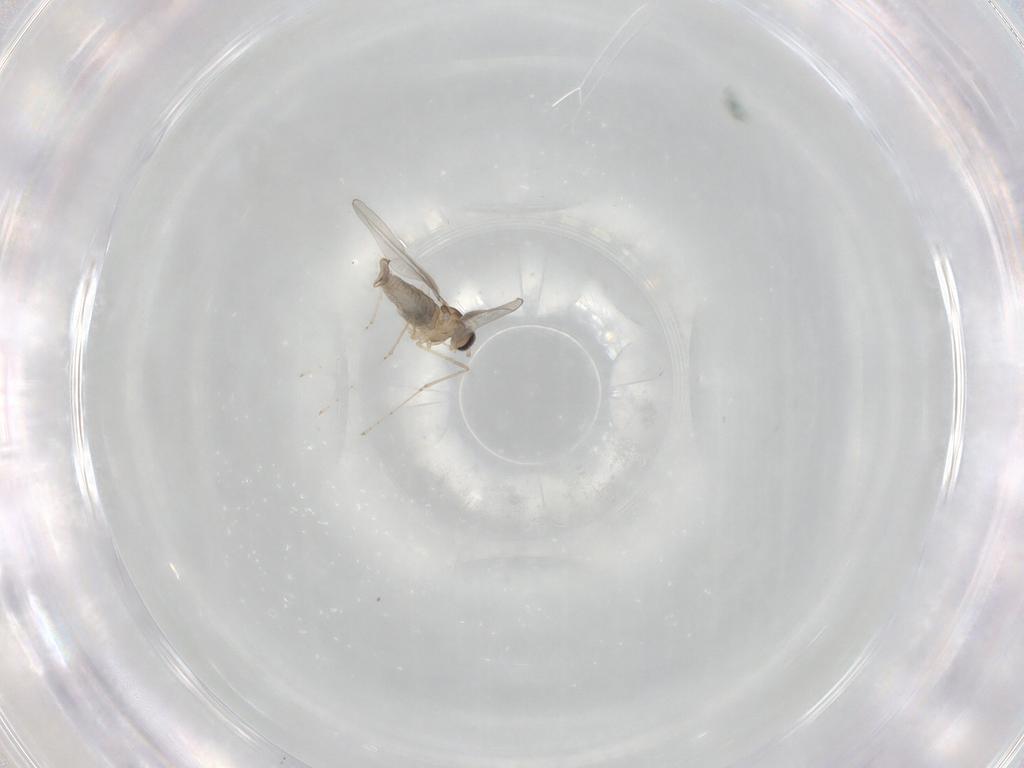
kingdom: Animalia
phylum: Arthropoda
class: Insecta
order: Diptera
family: Cecidomyiidae
